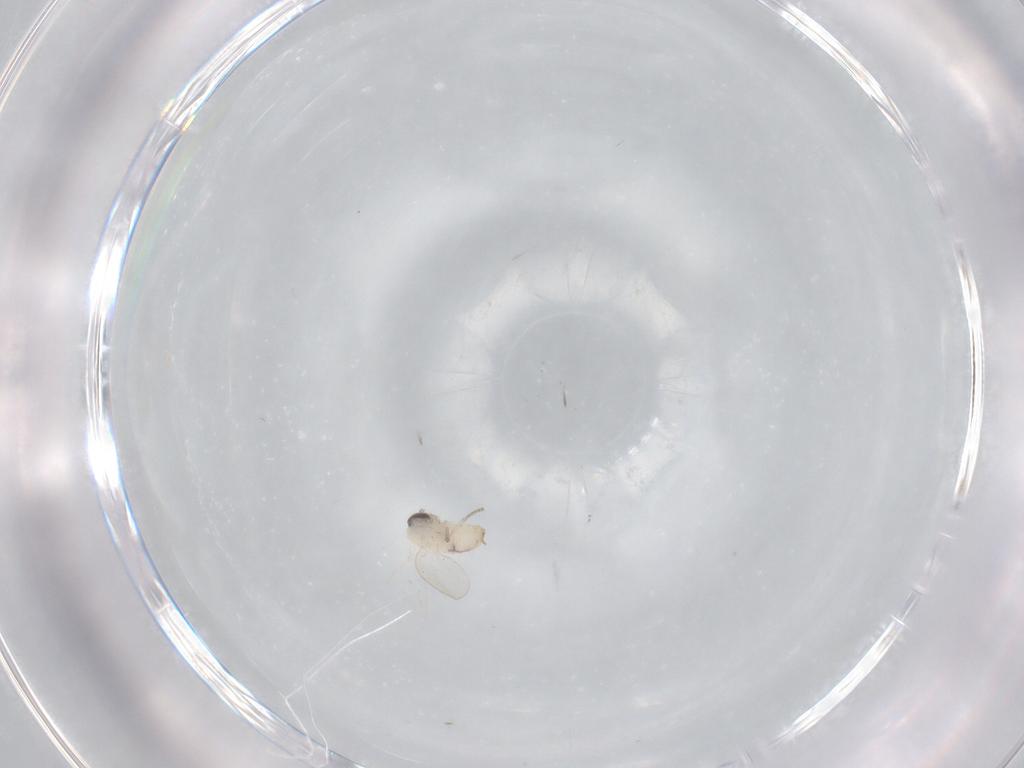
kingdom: Animalia
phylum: Arthropoda
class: Insecta
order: Diptera
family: Psychodidae
